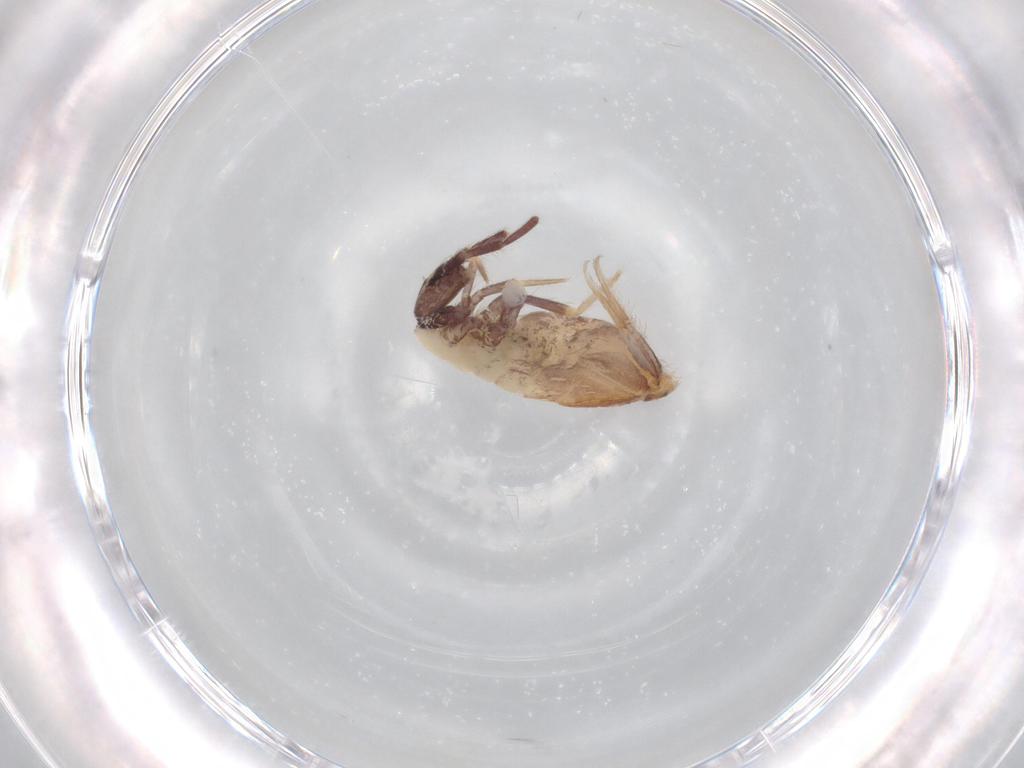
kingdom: Animalia
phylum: Arthropoda
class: Collembola
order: Entomobryomorpha
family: Entomobryidae
